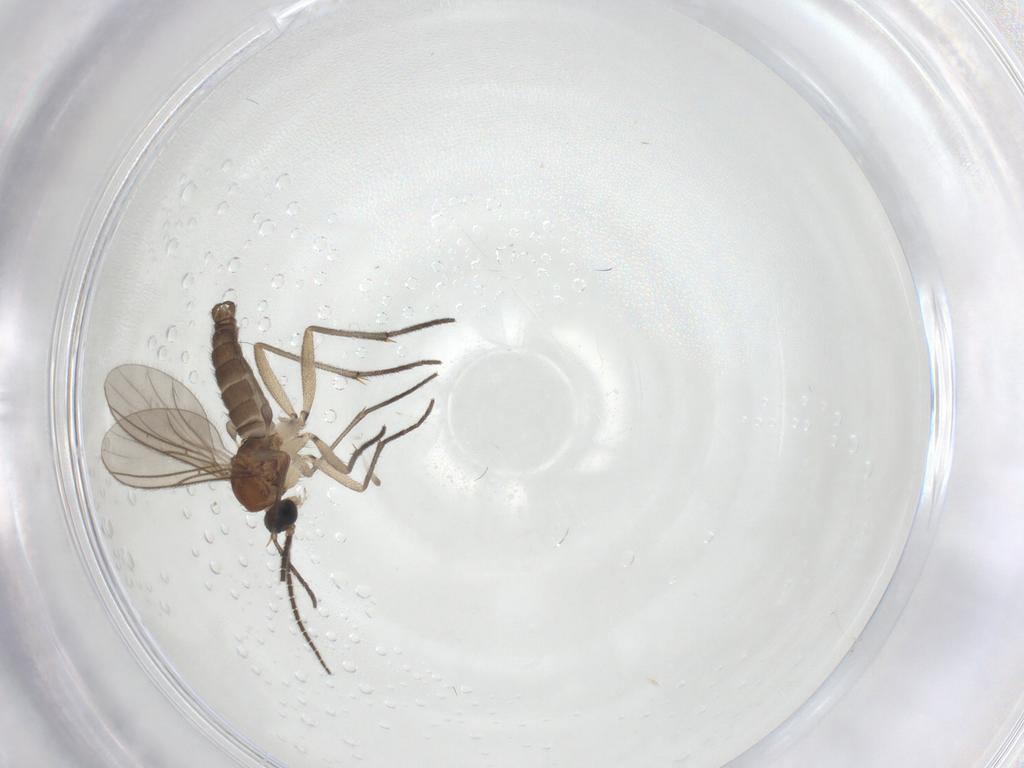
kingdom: Animalia
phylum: Arthropoda
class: Insecta
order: Diptera
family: Sciaridae
